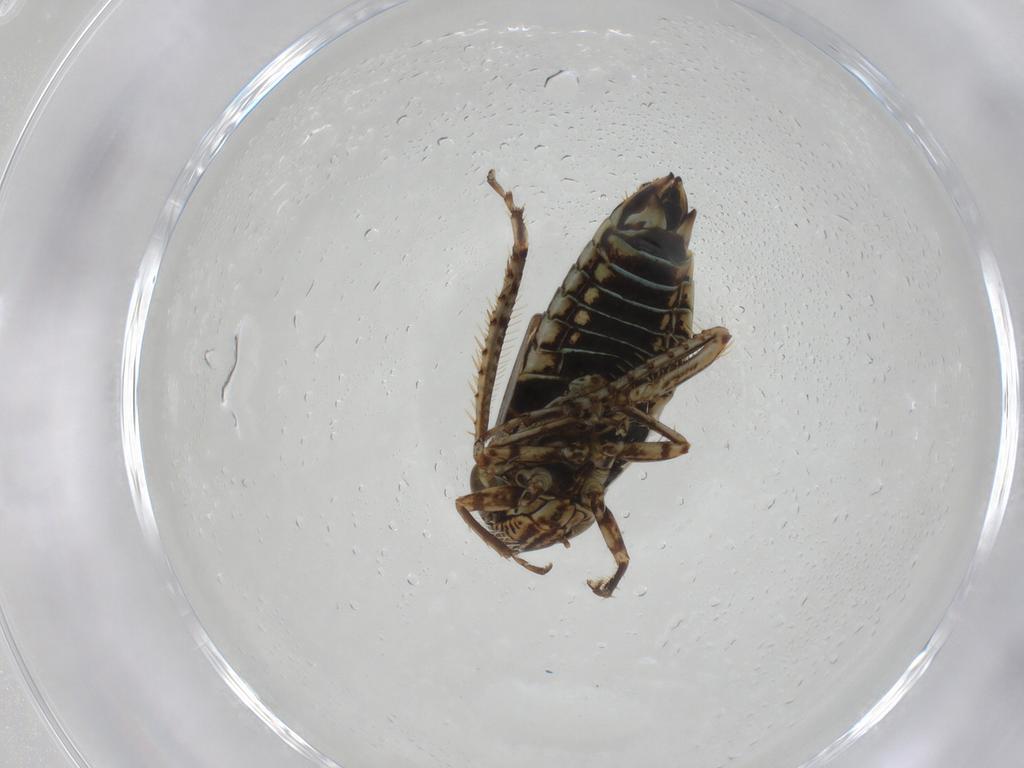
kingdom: Animalia
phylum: Arthropoda
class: Insecta
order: Hemiptera
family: Cicadellidae
